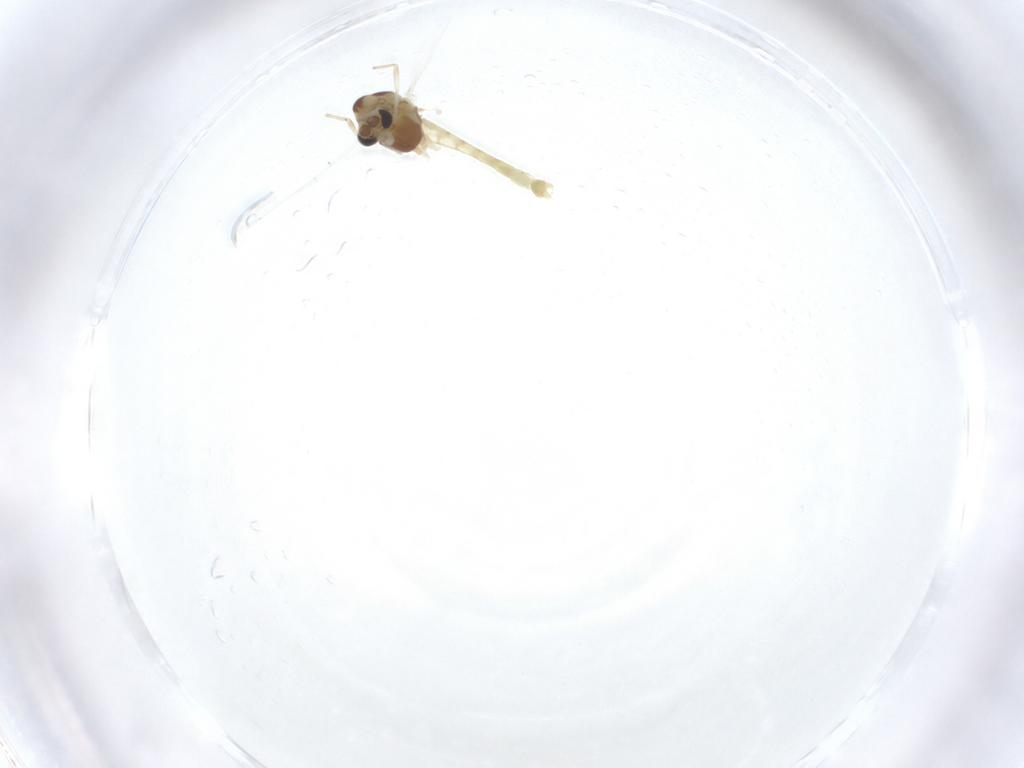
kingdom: Animalia
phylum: Arthropoda
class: Insecta
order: Diptera
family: Chironomidae
